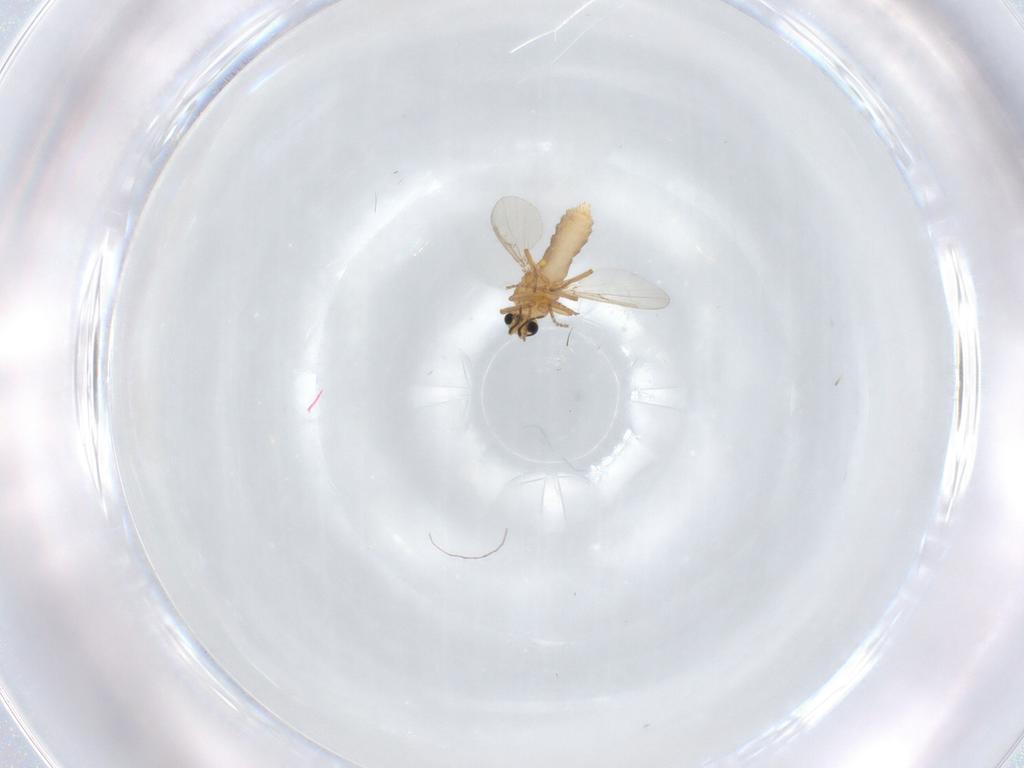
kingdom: Animalia
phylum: Arthropoda
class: Insecta
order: Diptera
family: Ceratopogonidae
